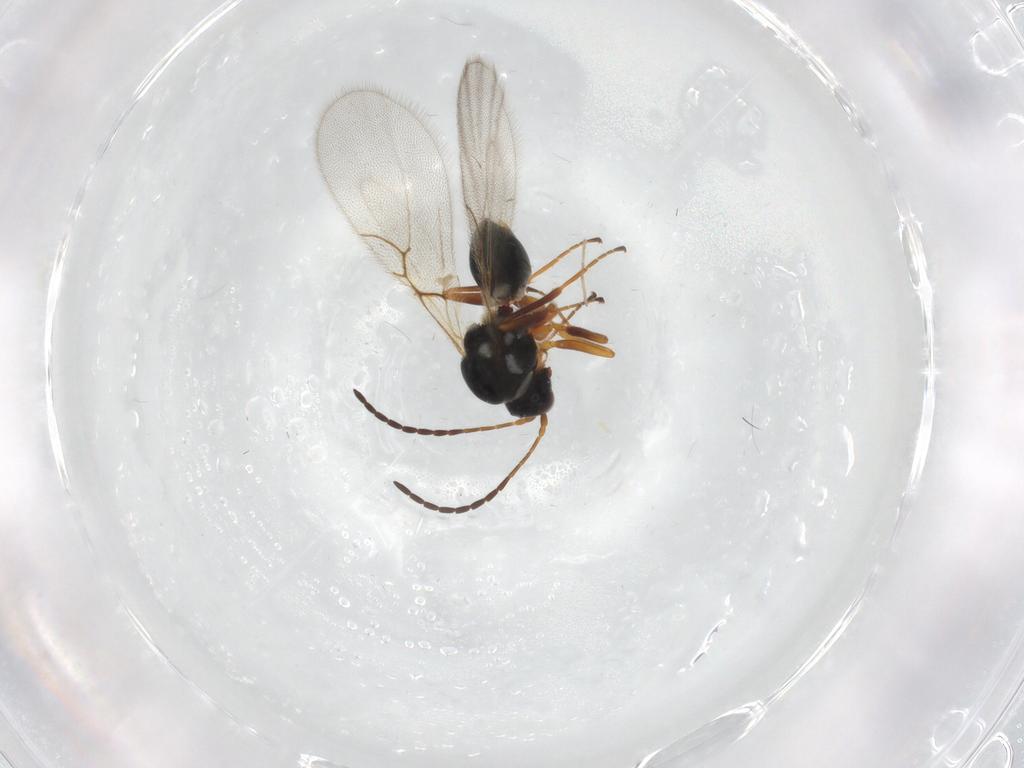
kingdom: Animalia
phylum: Arthropoda
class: Insecta
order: Hymenoptera
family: Figitidae
